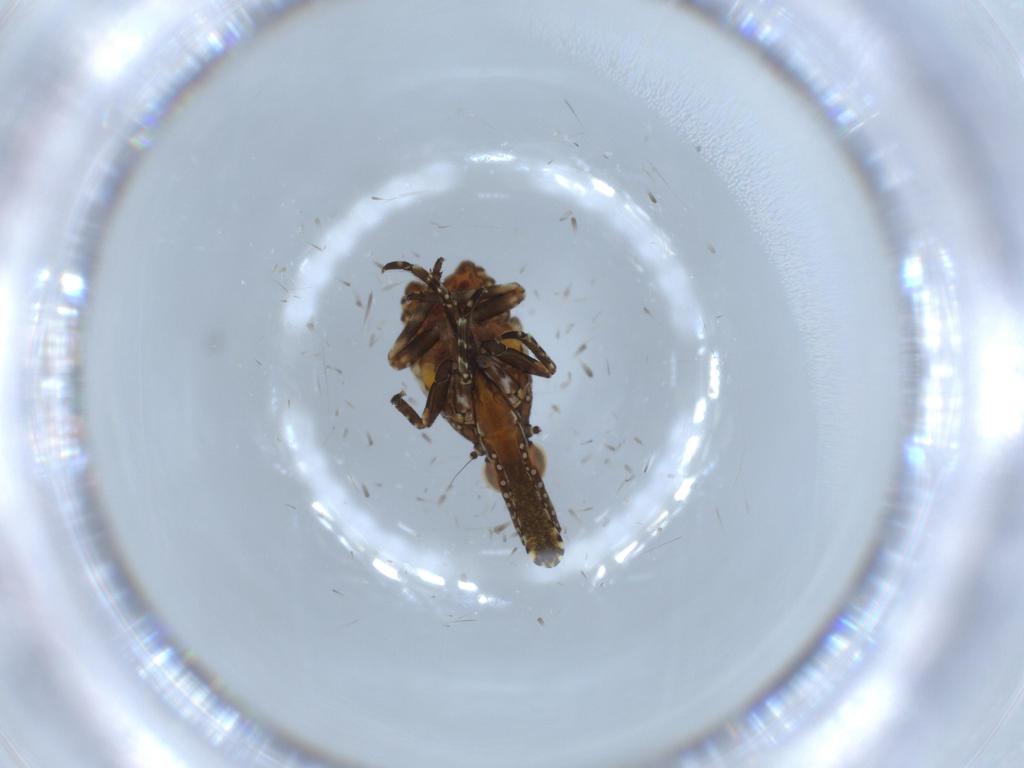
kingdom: Animalia
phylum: Arthropoda
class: Insecta
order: Hemiptera
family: Fulgoridae
